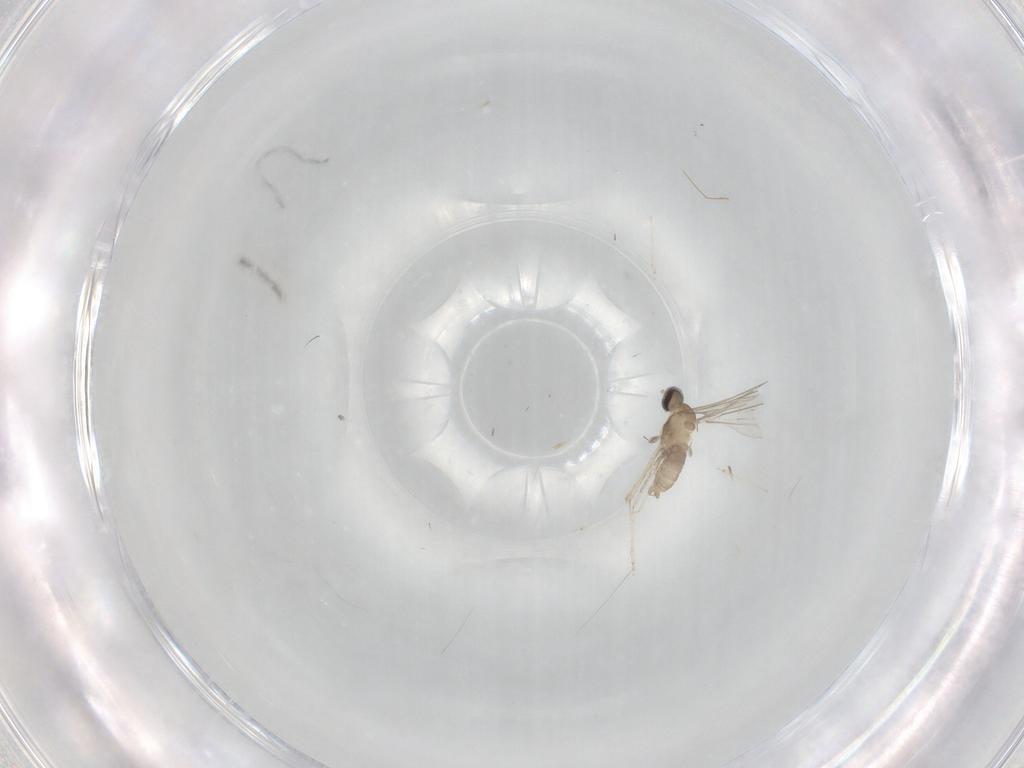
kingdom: Animalia
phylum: Arthropoda
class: Insecta
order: Diptera
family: Cecidomyiidae
